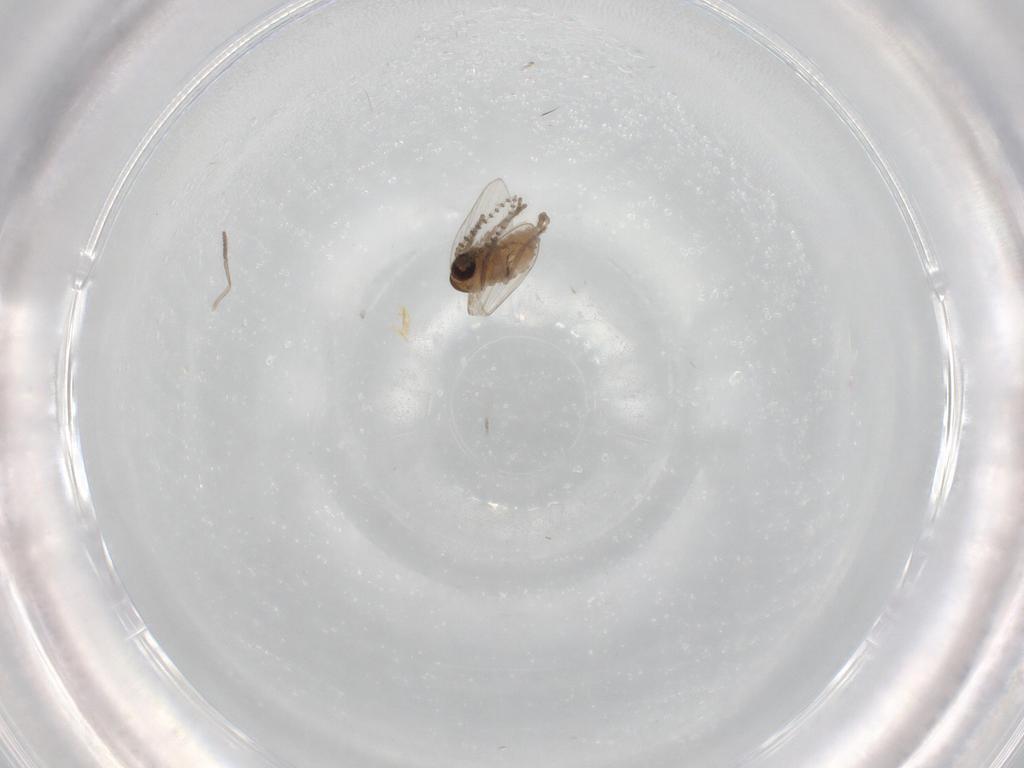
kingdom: Animalia
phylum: Arthropoda
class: Insecta
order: Diptera
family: Psychodidae
